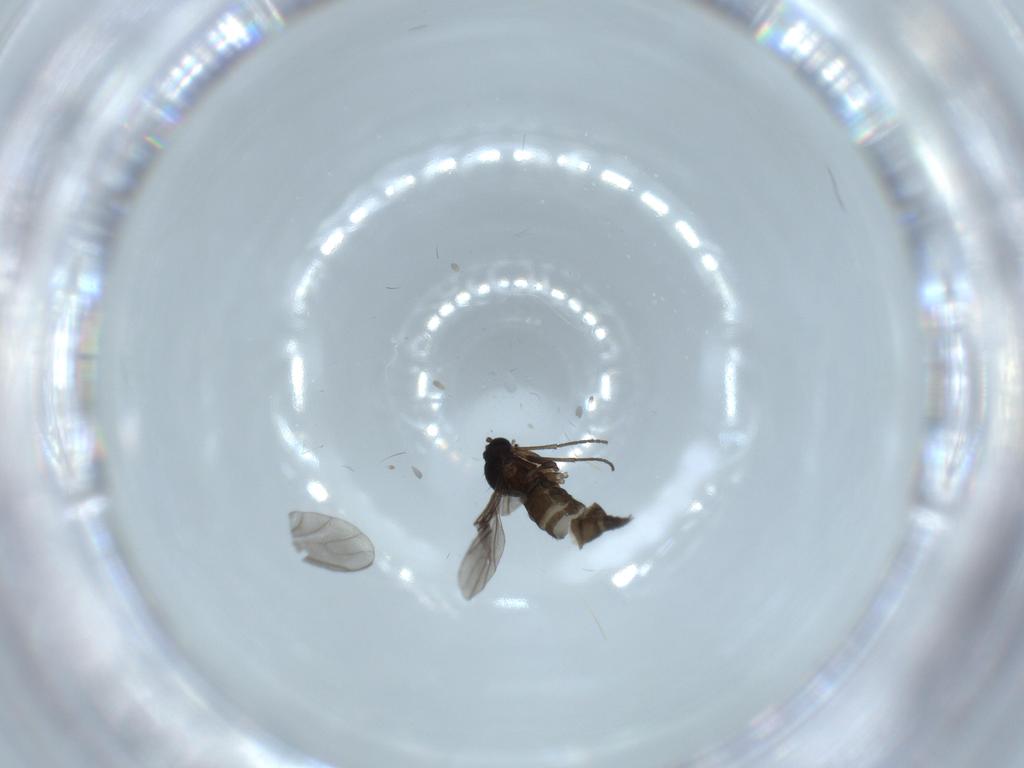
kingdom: Animalia
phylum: Arthropoda
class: Insecta
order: Diptera
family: Sciaridae
